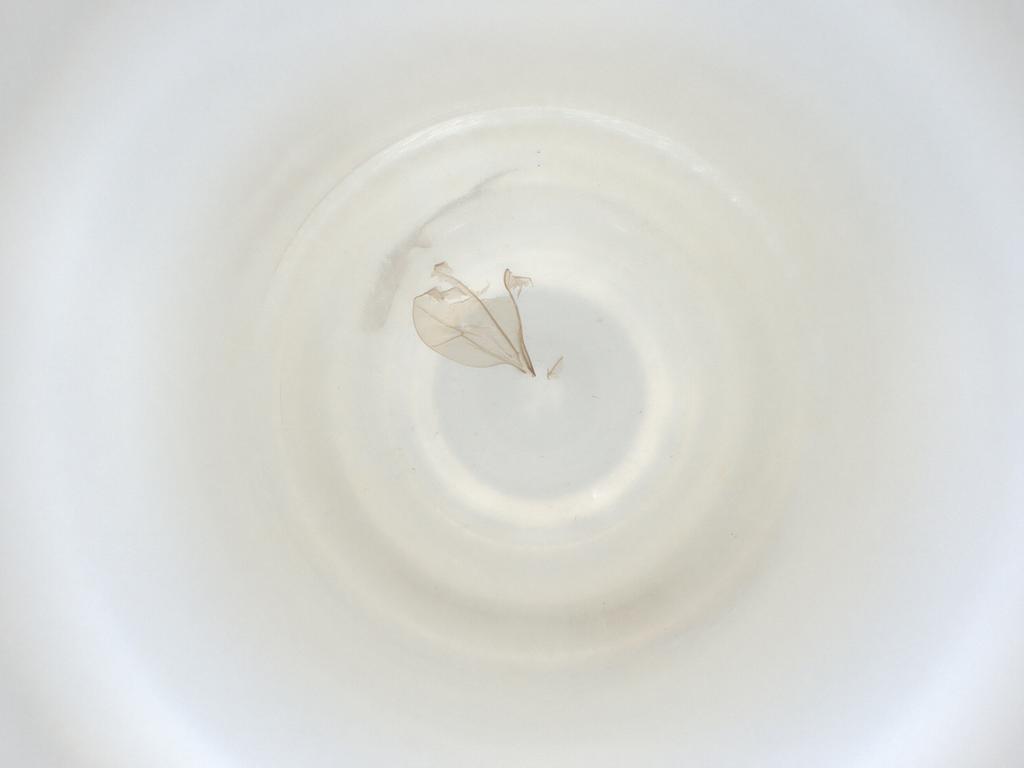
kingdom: Animalia
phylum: Arthropoda
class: Insecta
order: Diptera
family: Cecidomyiidae
